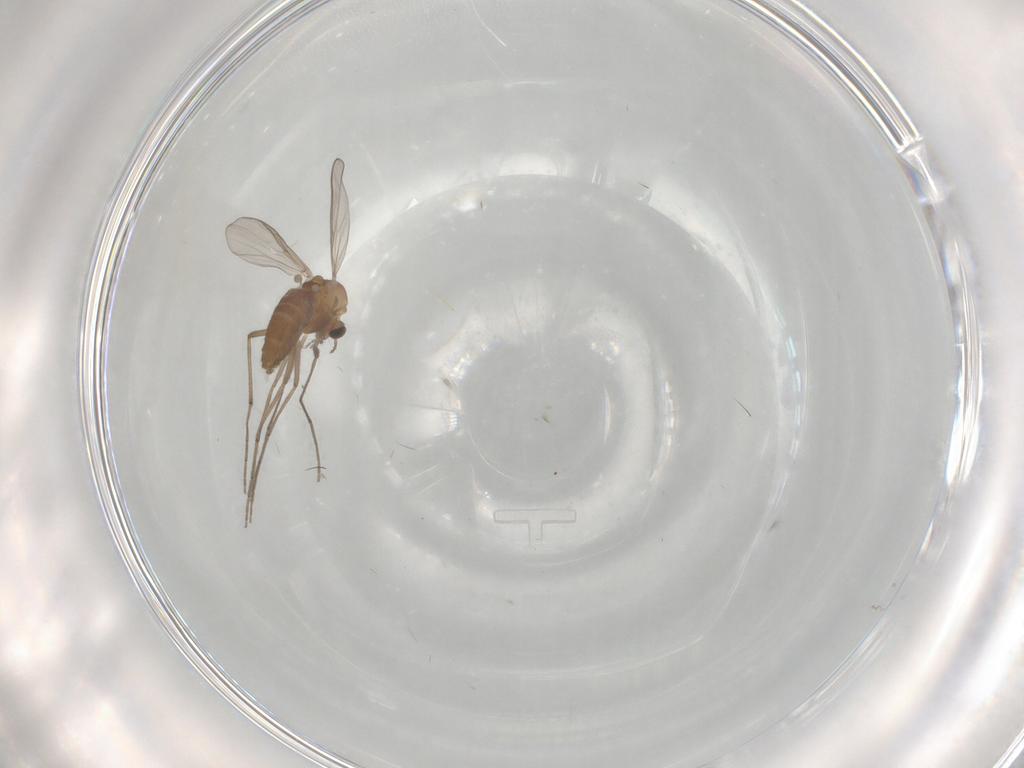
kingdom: Animalia
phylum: Arthropoda
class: Insecta
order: Diptera
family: Chironomidae
